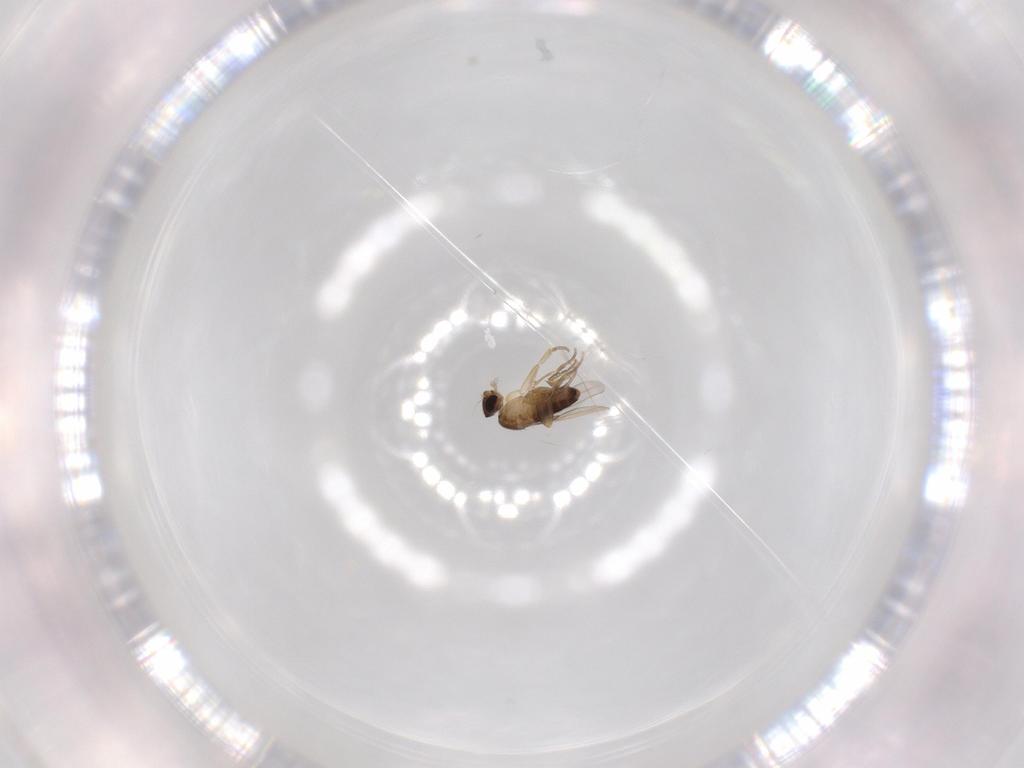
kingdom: Animalia
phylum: Arthropoda
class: Insecta
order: Diptera
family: Phoridae
